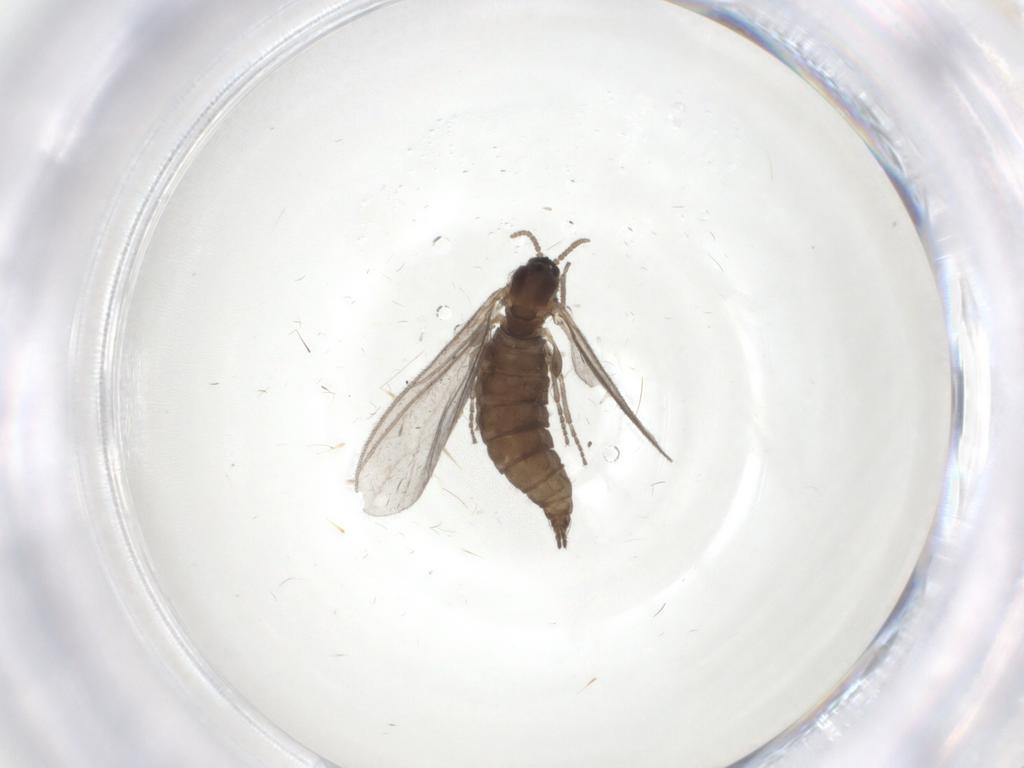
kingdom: Animalia
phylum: Arthropoda
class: Insecta
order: Diptera
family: Sciaridae
